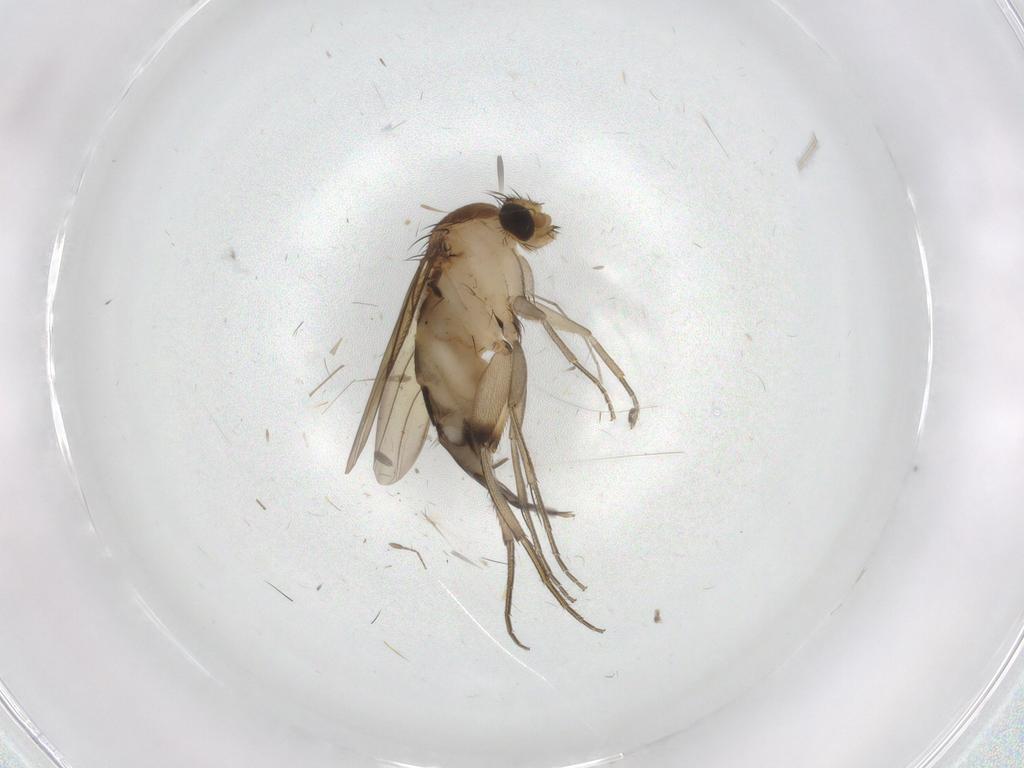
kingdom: Animalia
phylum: Arthropoda
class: Insecta
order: Diptera
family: Phoridae
